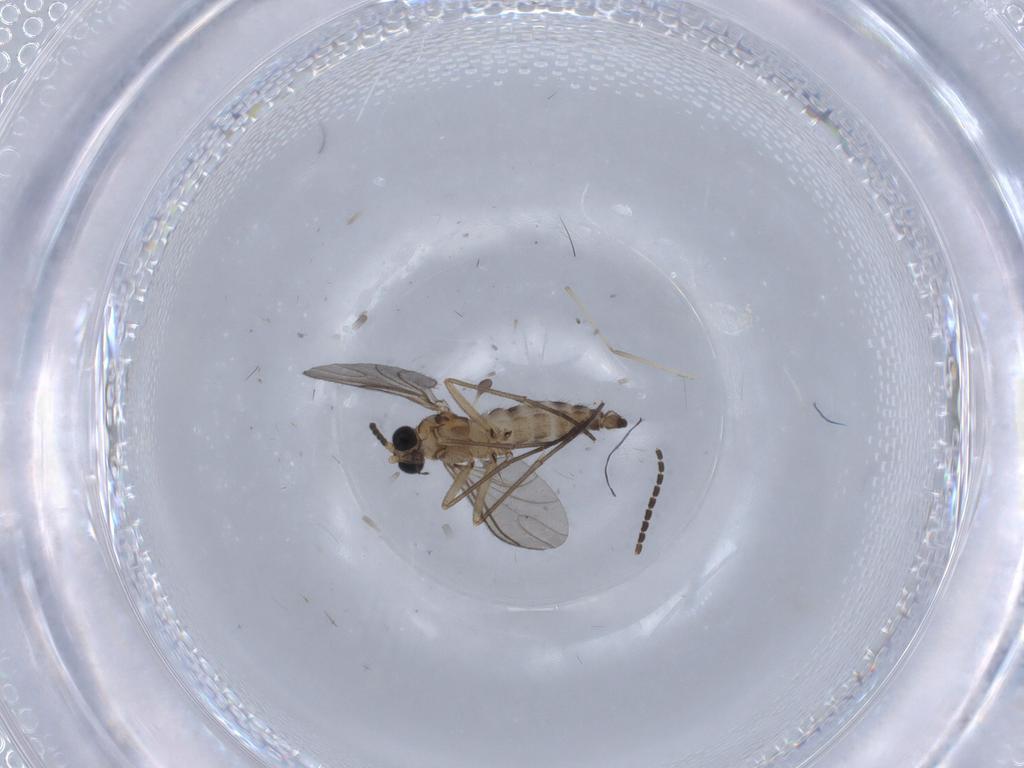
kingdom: Animalia
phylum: Arthropoda
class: Insecta
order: Diptera
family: Sciaridae
